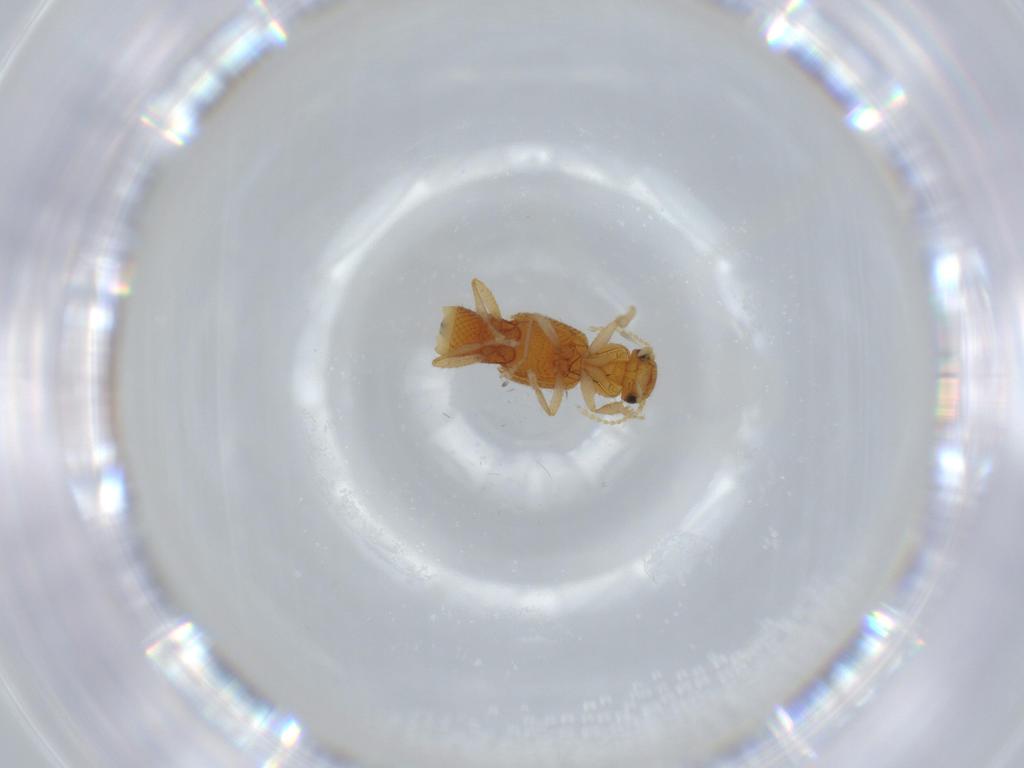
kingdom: Animalia
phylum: Arthropoda
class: Insecta
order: Coleoptera
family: Staphylinidae
